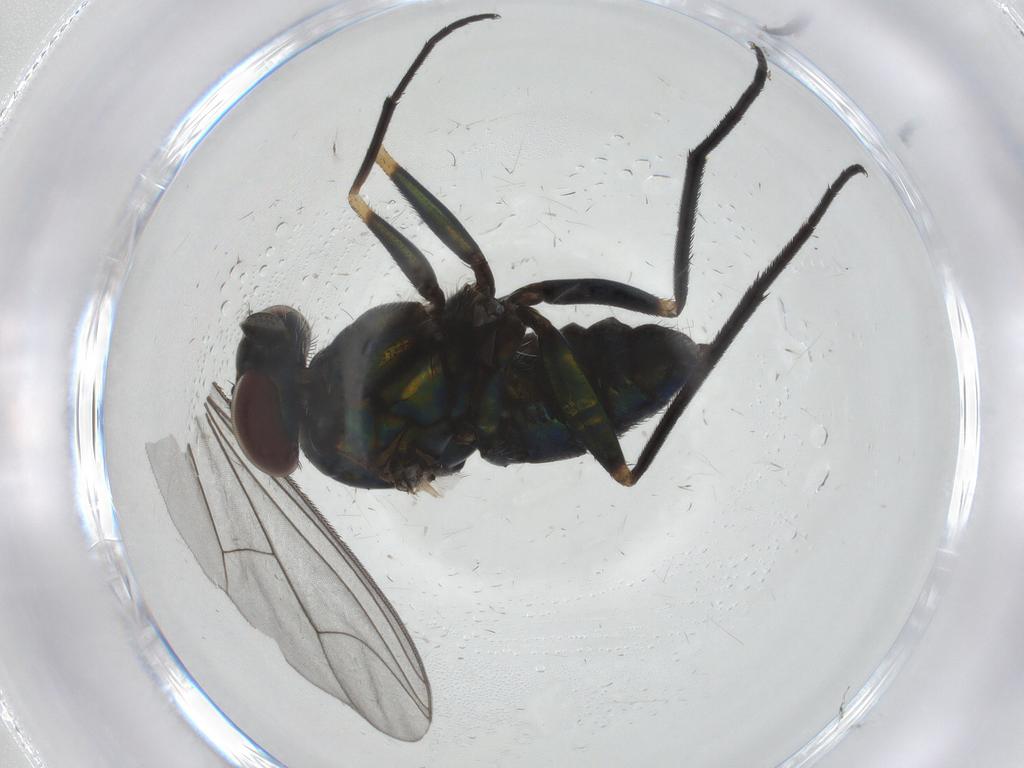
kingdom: Animalia
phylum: Arthropoda
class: Insecta
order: Diptera
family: Dolichopodidae
